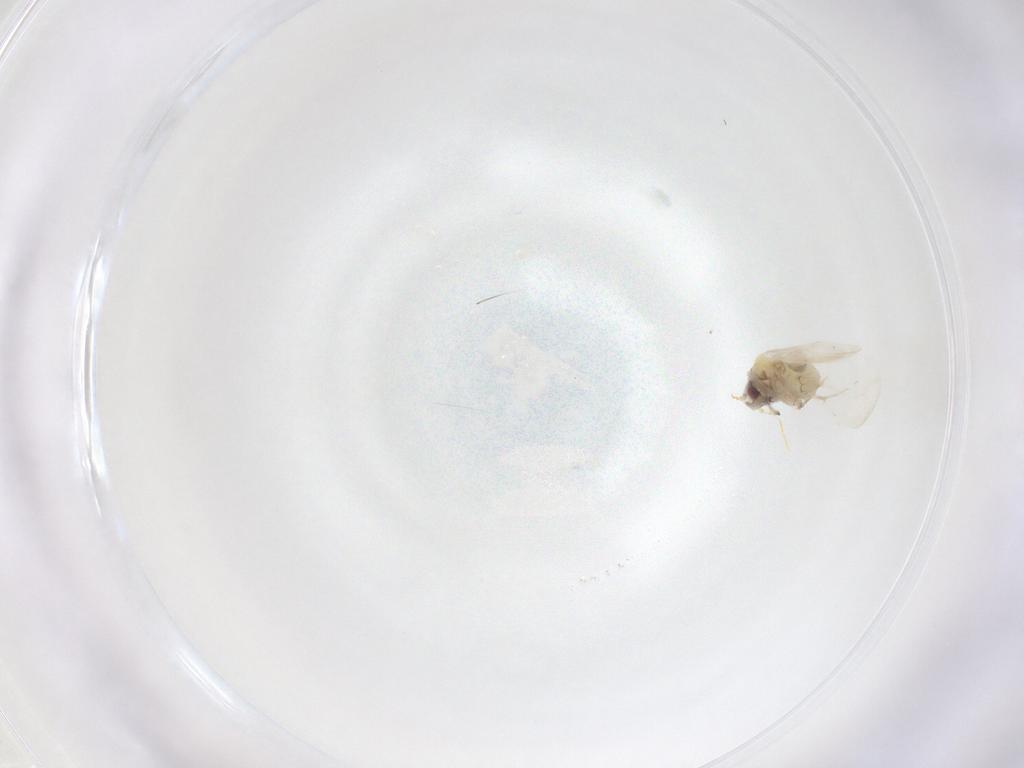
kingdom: Animalia
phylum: Arthropoda
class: Insecta
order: Hemiptera
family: Aleyrodidae
